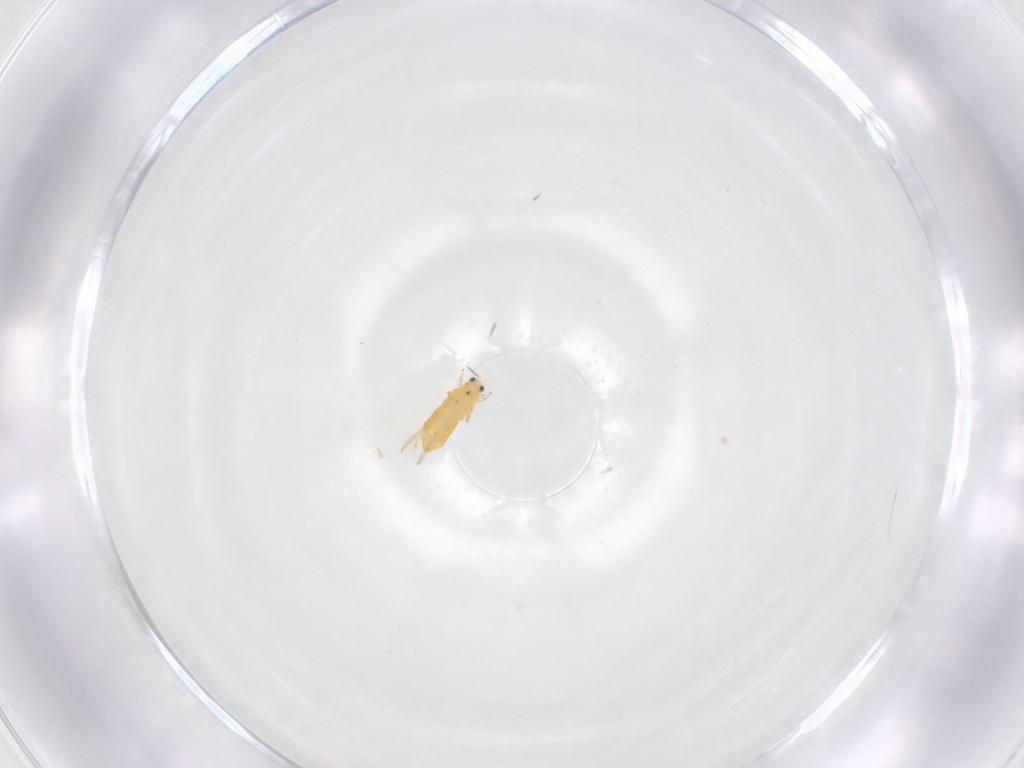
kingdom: Animalia
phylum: Arthropoda
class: Insecta
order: Thysanoptera
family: Thripidae
